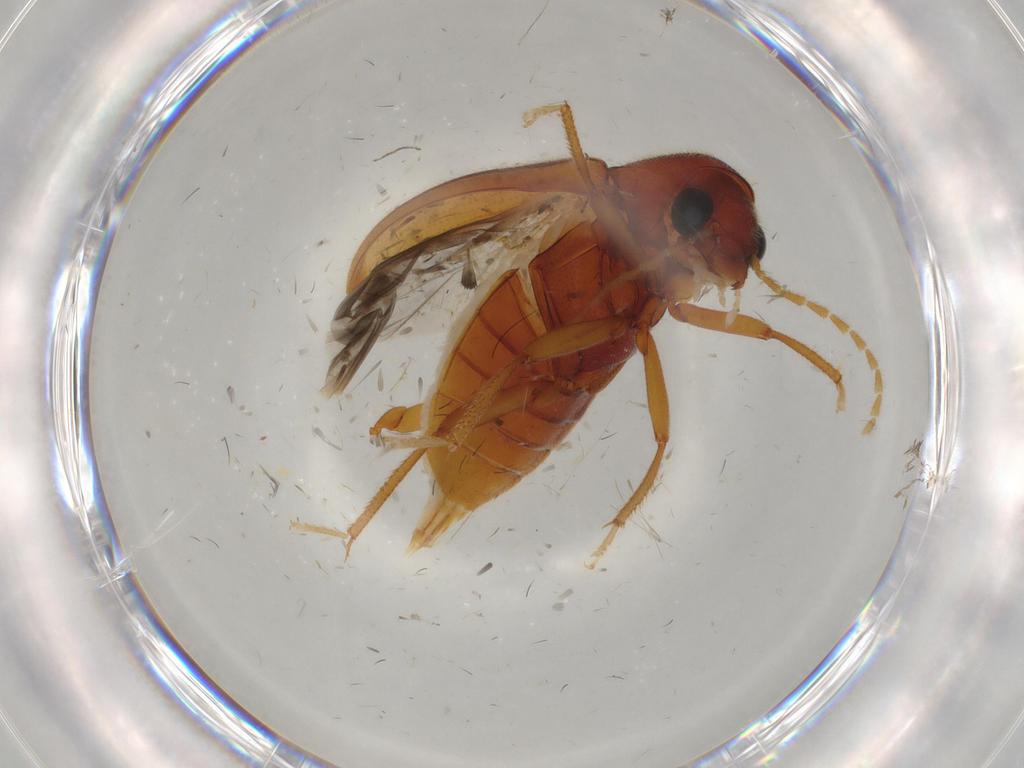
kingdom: Animalia
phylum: Arthropoda
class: Insecta
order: Coleoptera
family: Ptilodactylidae
